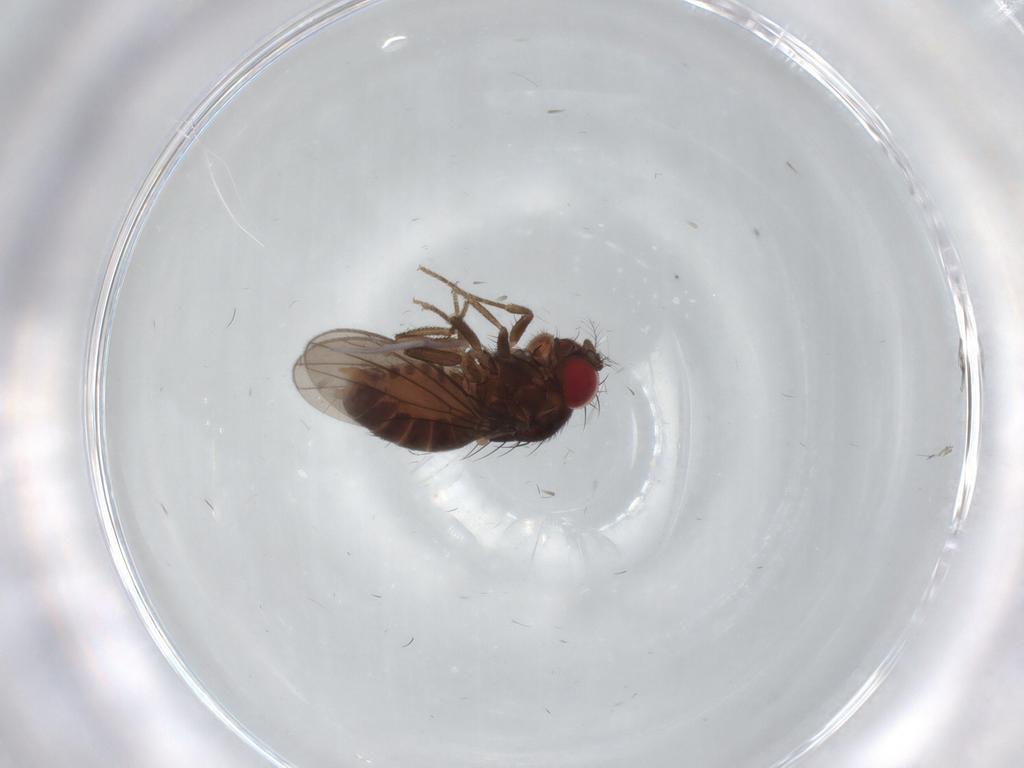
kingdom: Animalia
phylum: Arthropoda
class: Insecta
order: Diptera
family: Drosophilidae
